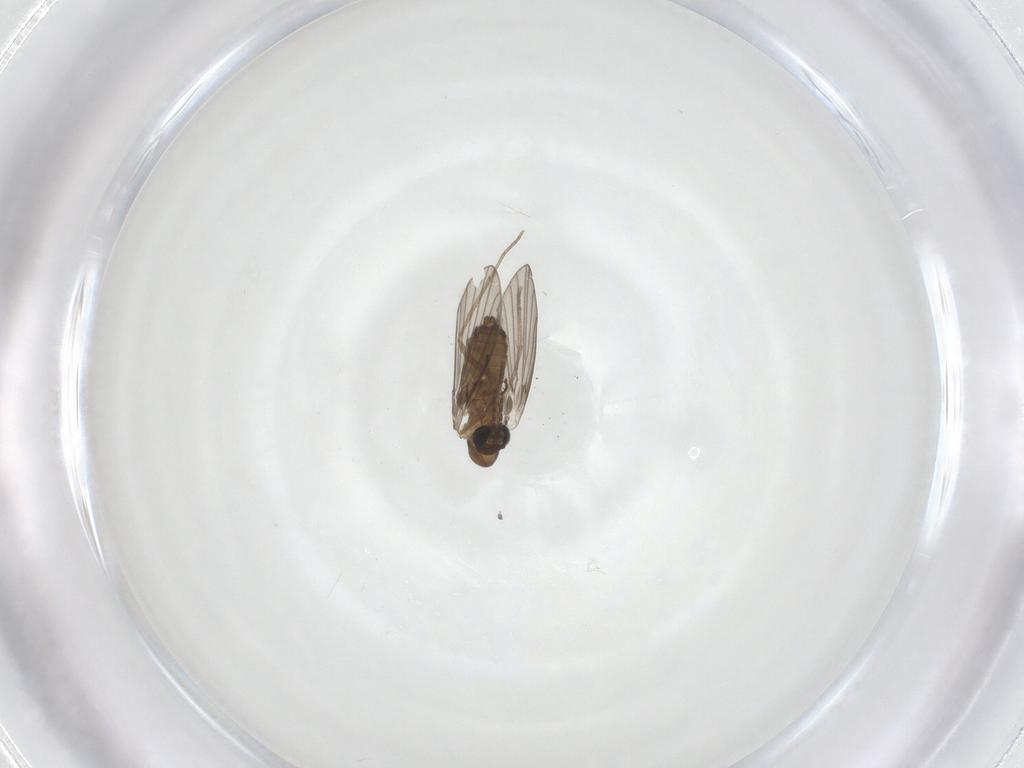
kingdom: Animalia
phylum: Arthropoda
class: Insecta
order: Diptera
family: Psychodidae
